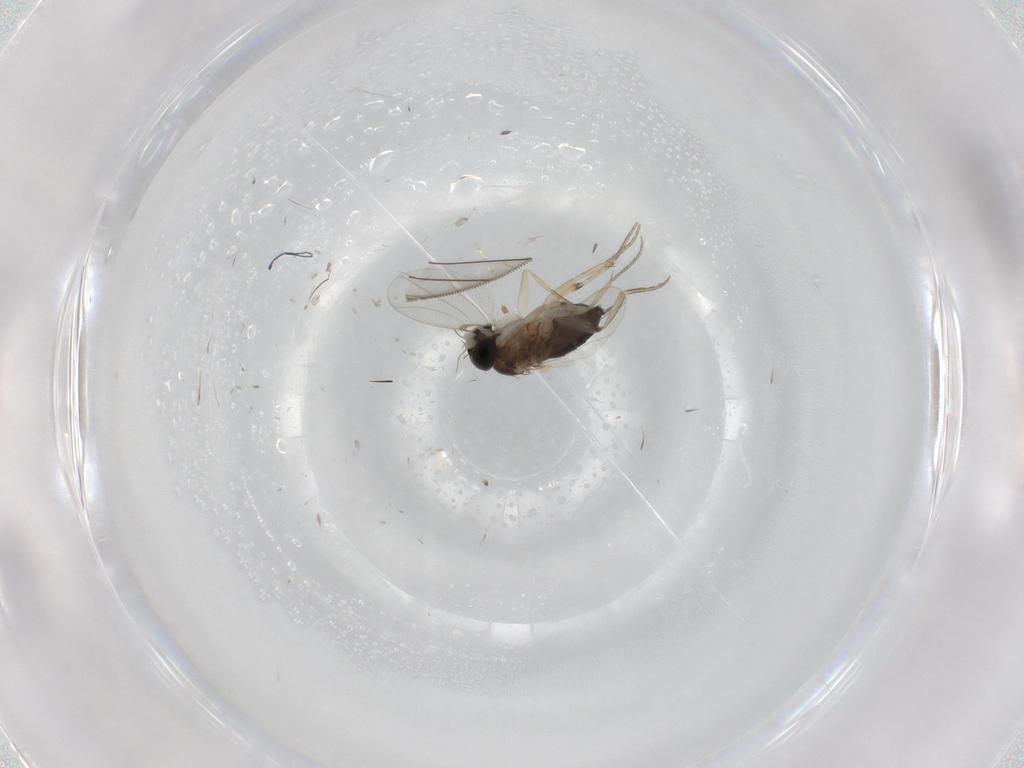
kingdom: Animalia
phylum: Arthropoda
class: Insecta
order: Diptera
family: Phoridae
